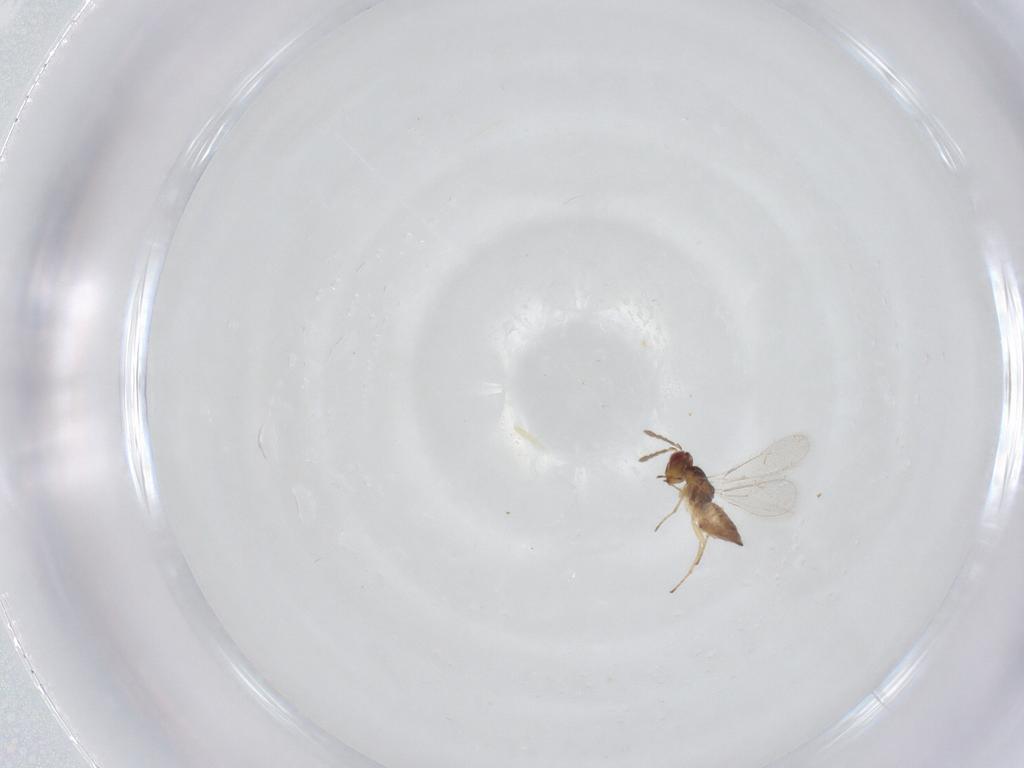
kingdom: Animalia
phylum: Arthropoda
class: Insecta
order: Hymenoptera
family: Eulophidae
